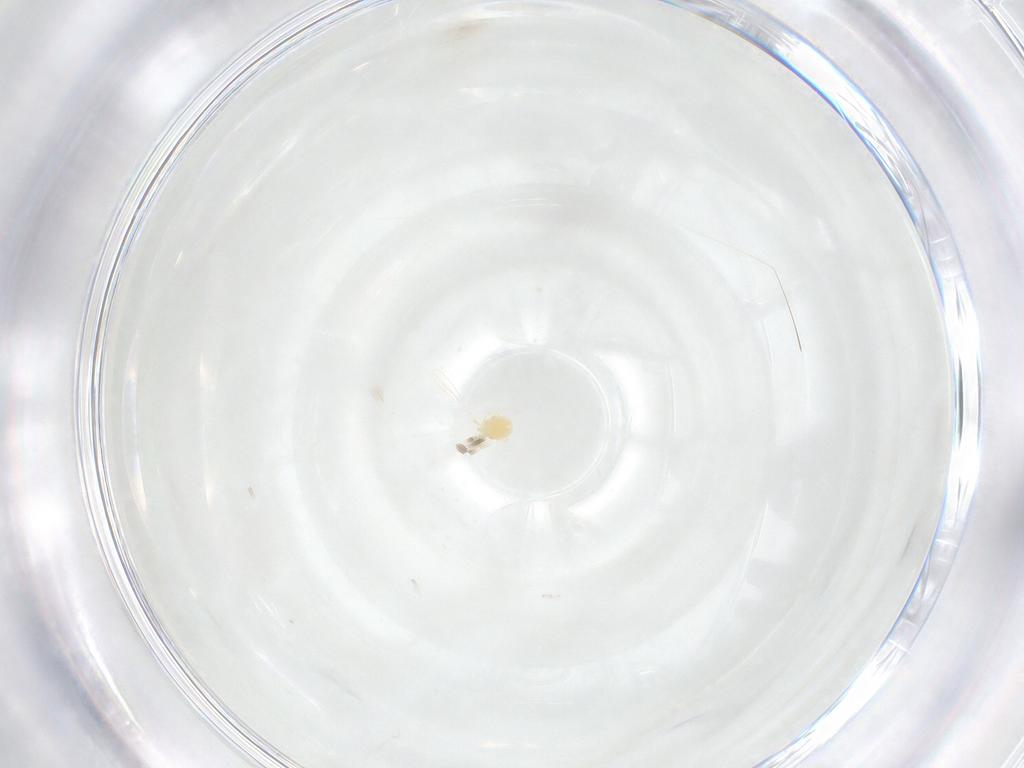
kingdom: Animalia
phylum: Arthropoda
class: Arachnida
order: Trombidiformes
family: Torrenticolidae
